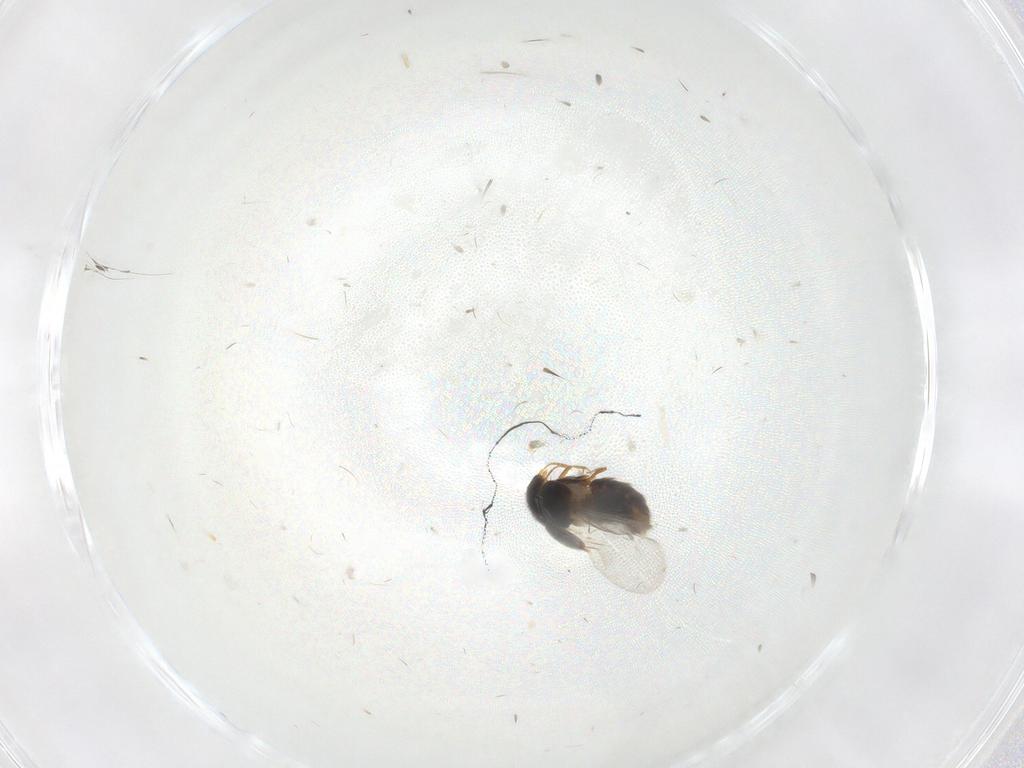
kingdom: Animalia
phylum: Arthropoda
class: Insecta
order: Coleoptera
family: Staphylinidae
